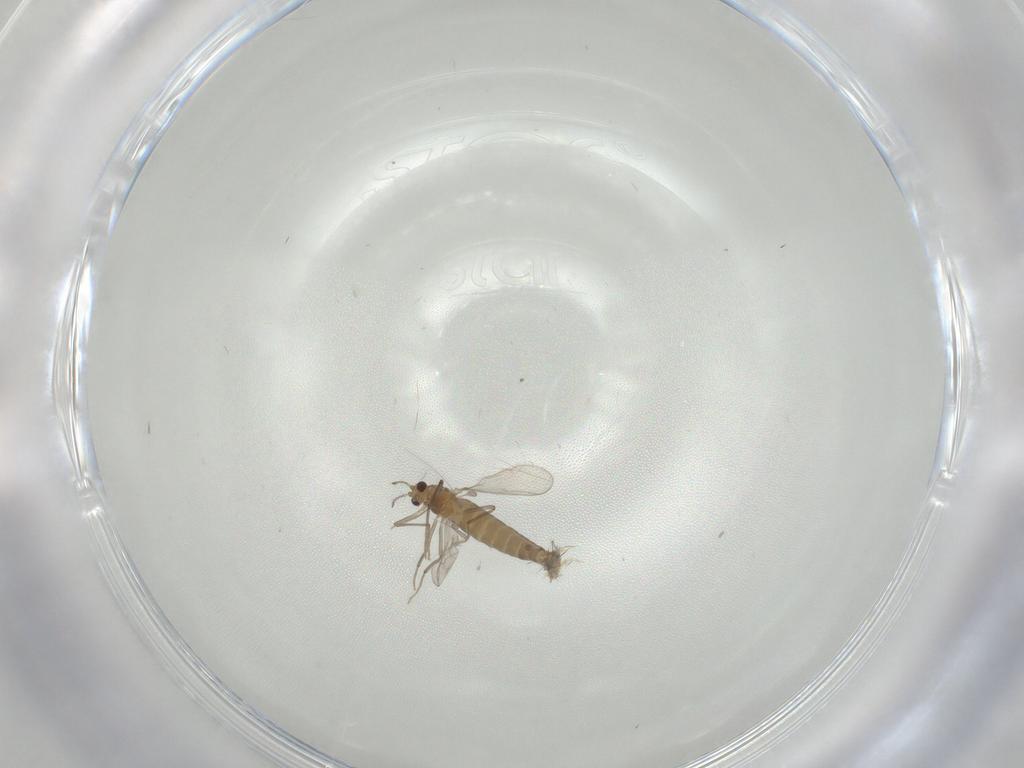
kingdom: Animalia
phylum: Arthropoda
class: Insecta
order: Diptera
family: Chironomidae
